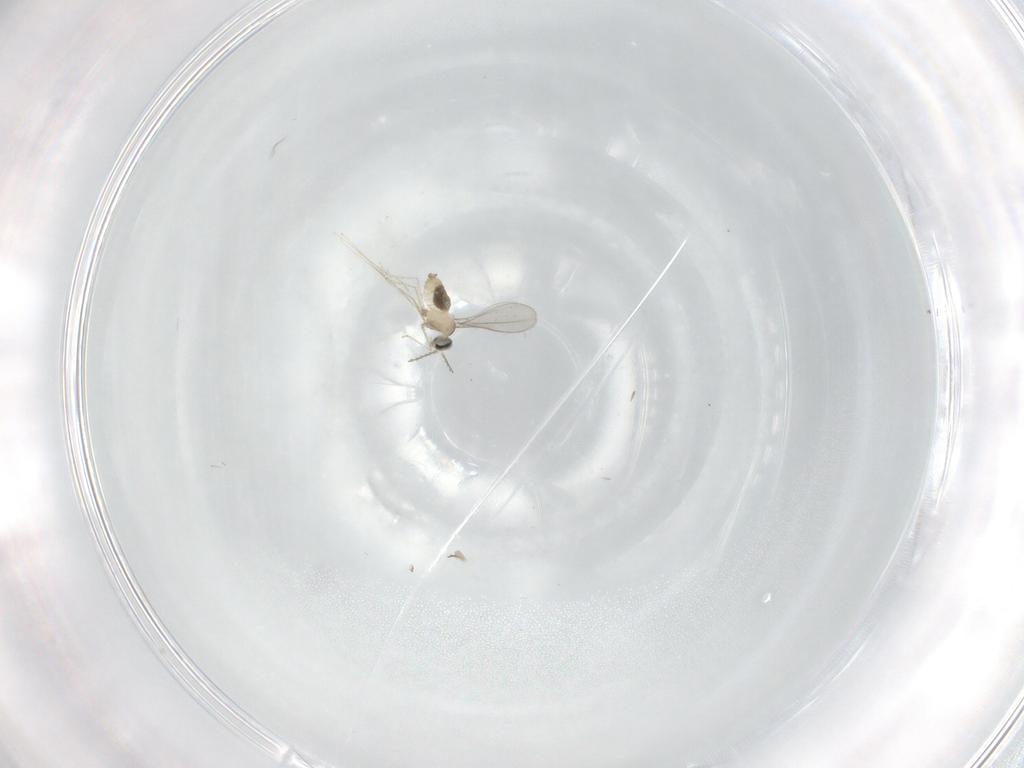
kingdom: Animalia
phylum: Arthropoda
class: Insecta
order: Diptera
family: Cecidomyiidae
